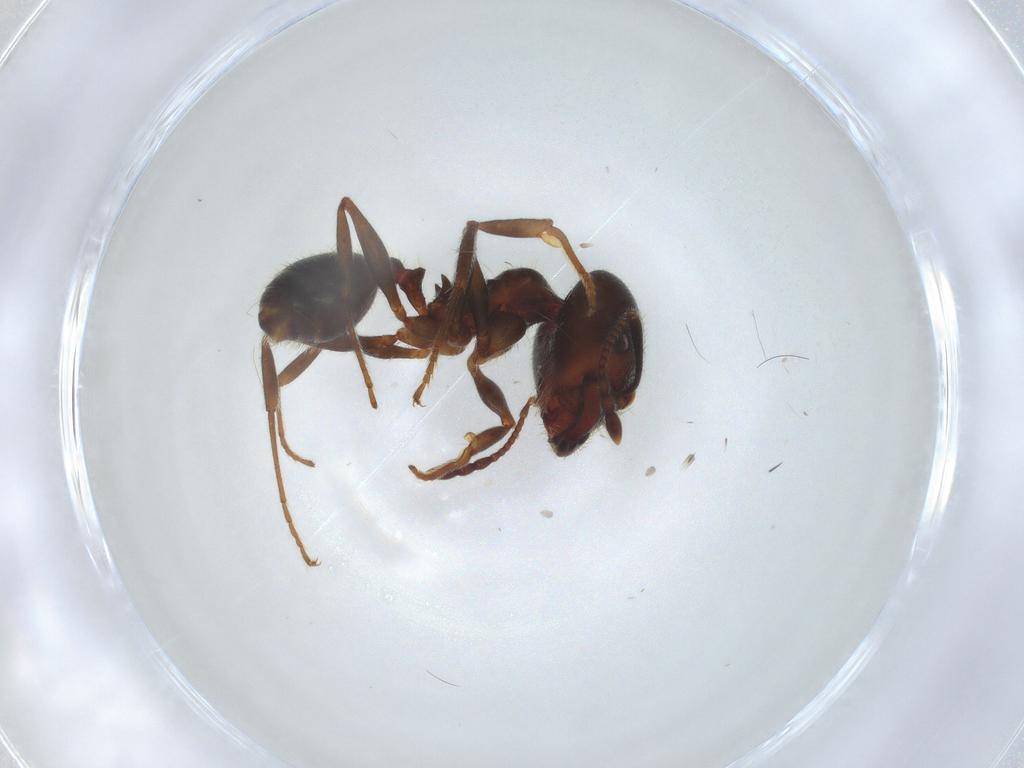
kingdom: Animalia
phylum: Arthropoda
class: Insecta
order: Hymenoptera
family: Formicidae
